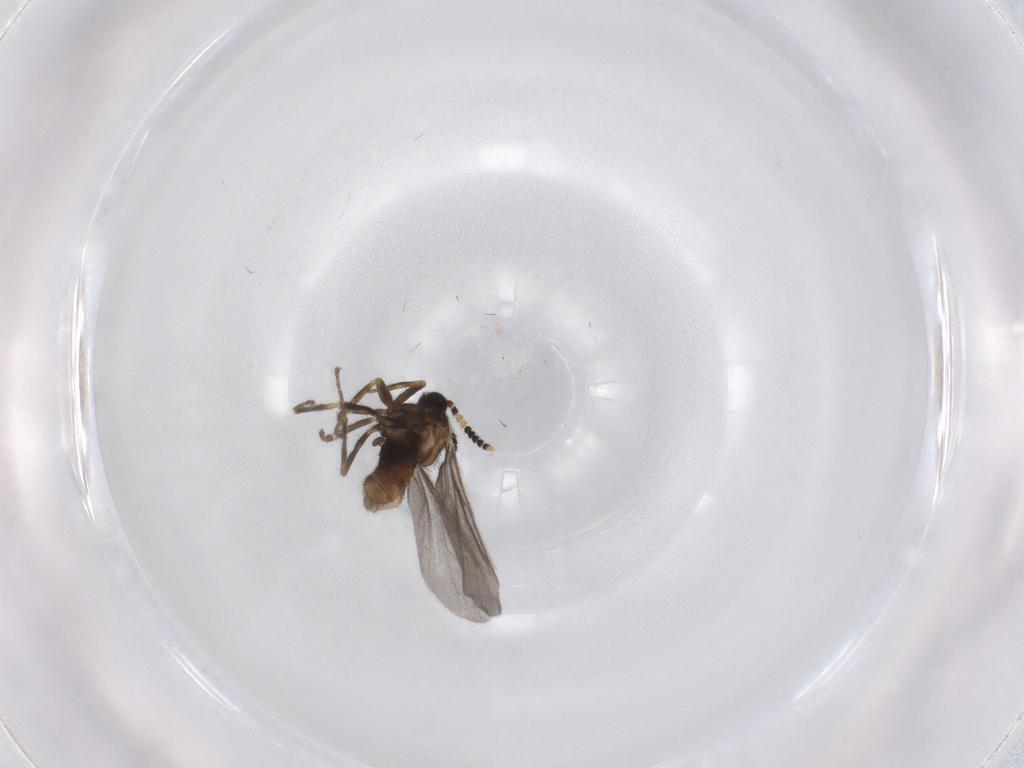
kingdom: Animalia
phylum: Arthropoda
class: Insecta
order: Diptera
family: Scatopsidae
